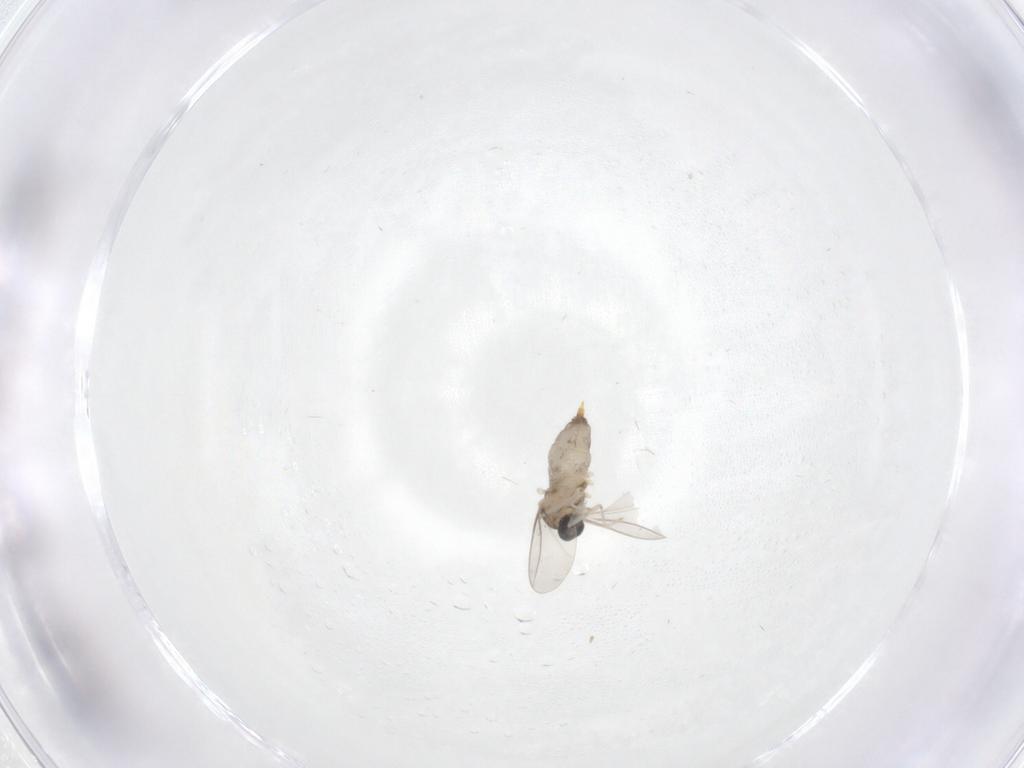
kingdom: Animalia
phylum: Arthropoda
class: Insecta
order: Diptera
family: Cecidomyiidae
